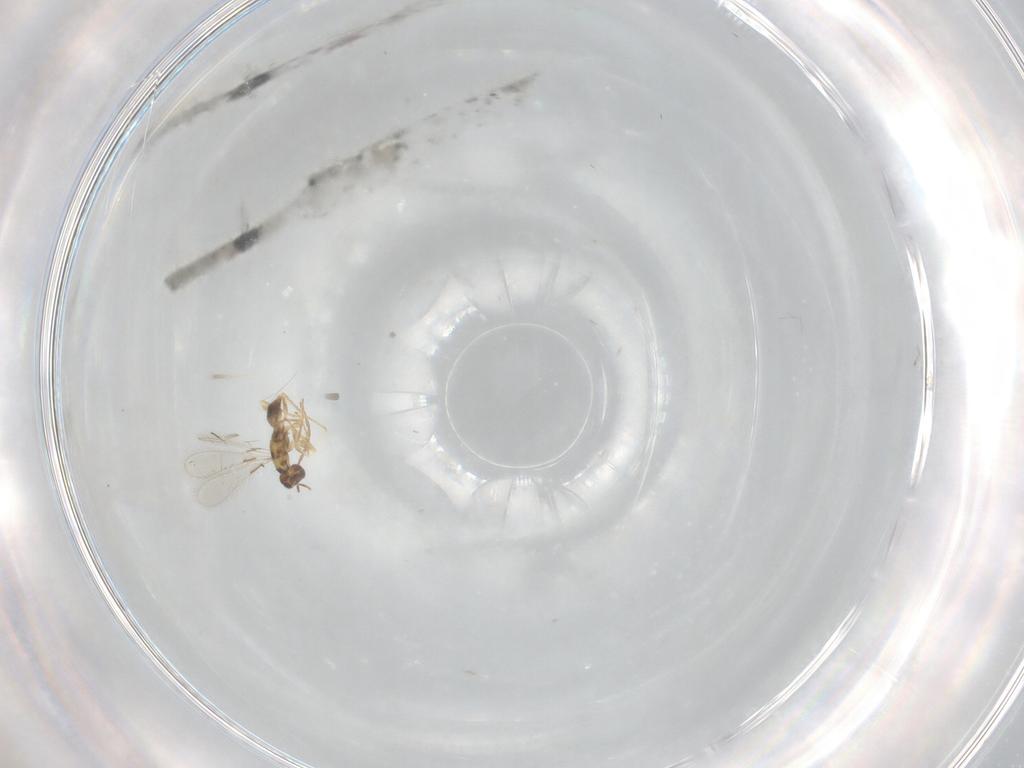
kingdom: Animalia
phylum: Arthropoda
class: Insecta
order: Hymenoptera
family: Mymaridae
